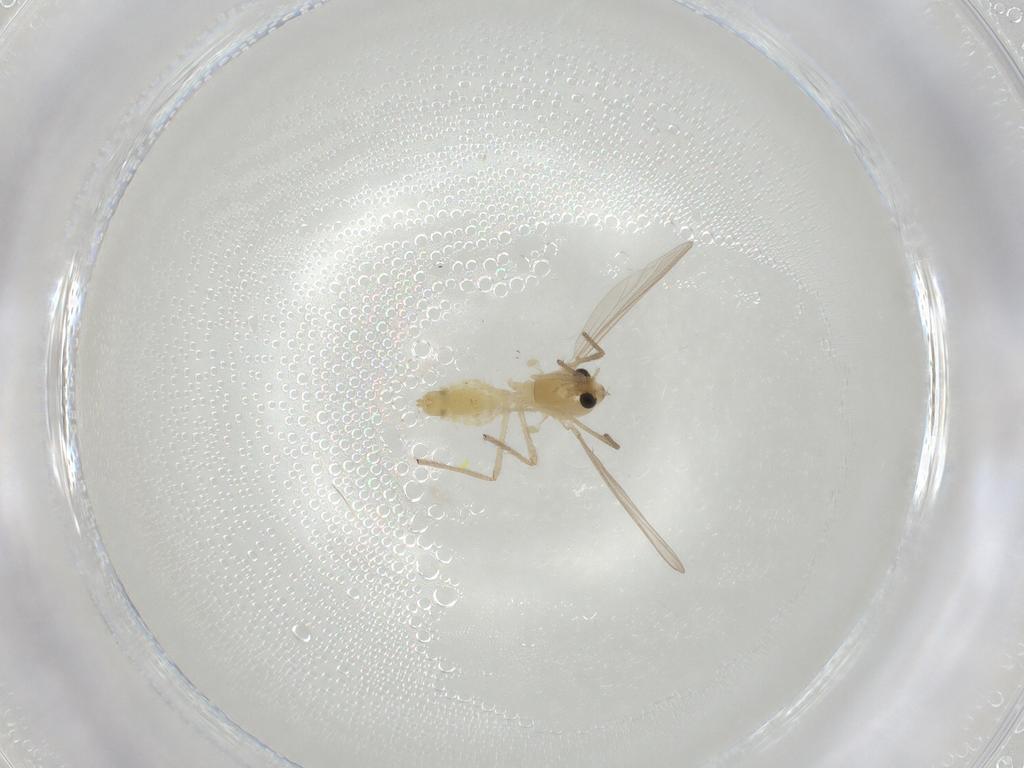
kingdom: Animalia
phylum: Arthropoda
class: Insecta
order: Diptera
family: Chironomidae
